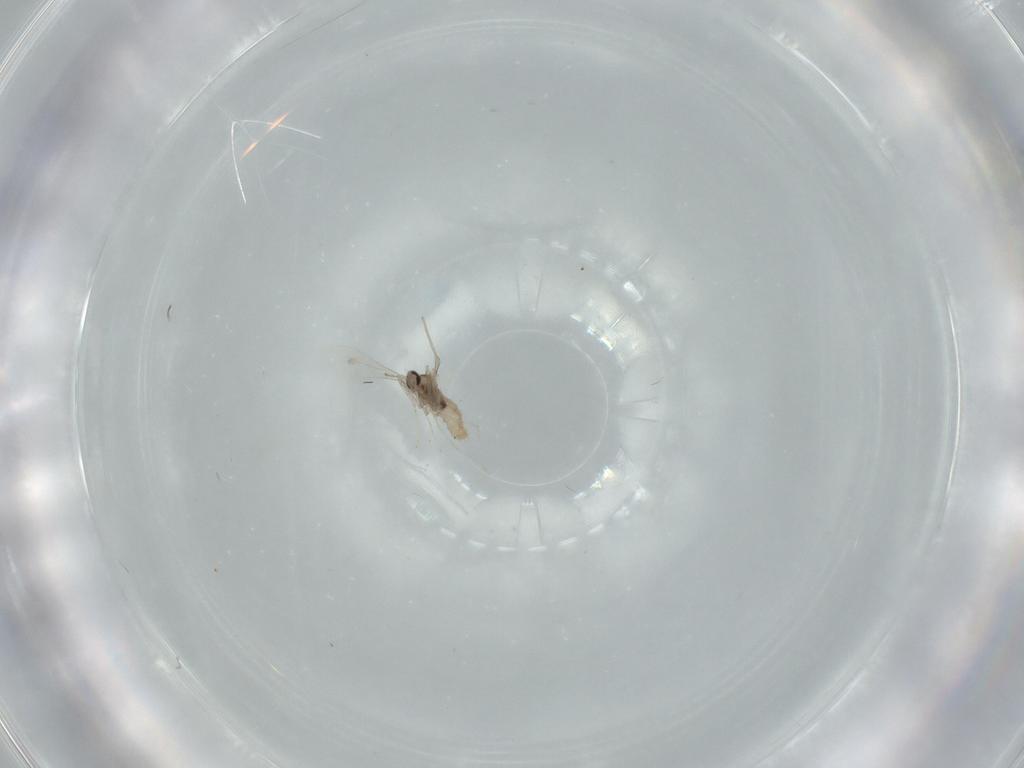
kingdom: Animalia
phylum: Arthropoda
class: Insecta
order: Diptera
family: Cecidomyiidae
